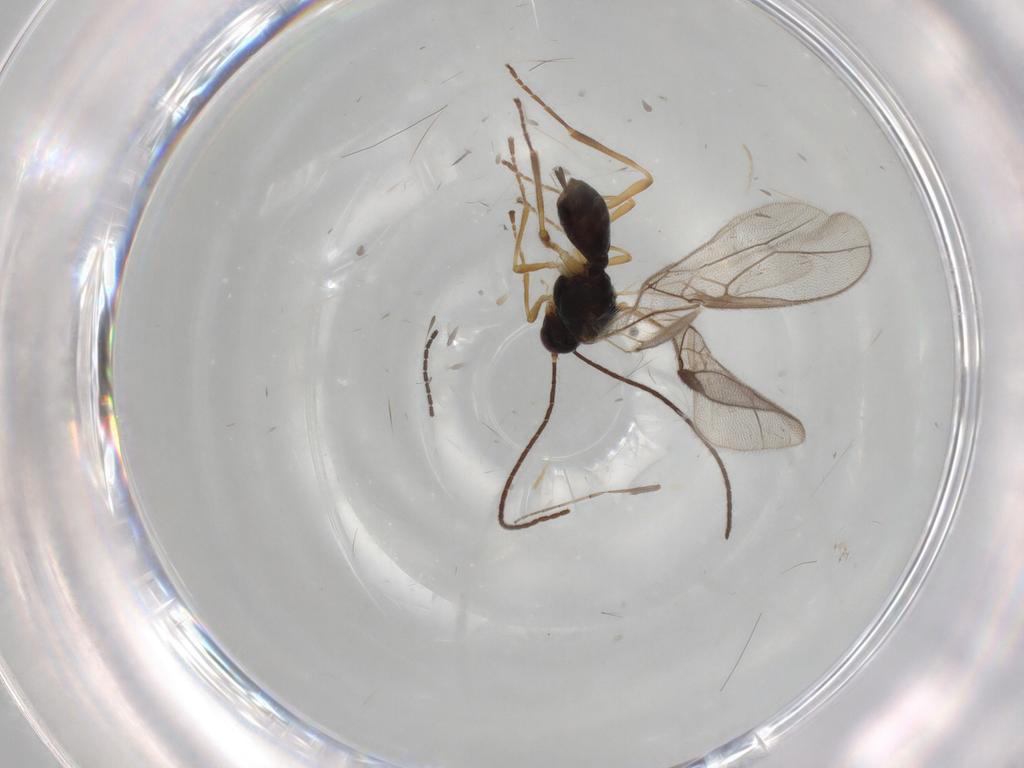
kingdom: Animalia
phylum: Arthropoda
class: Insecta
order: Hymenoptera
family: Braconidae
